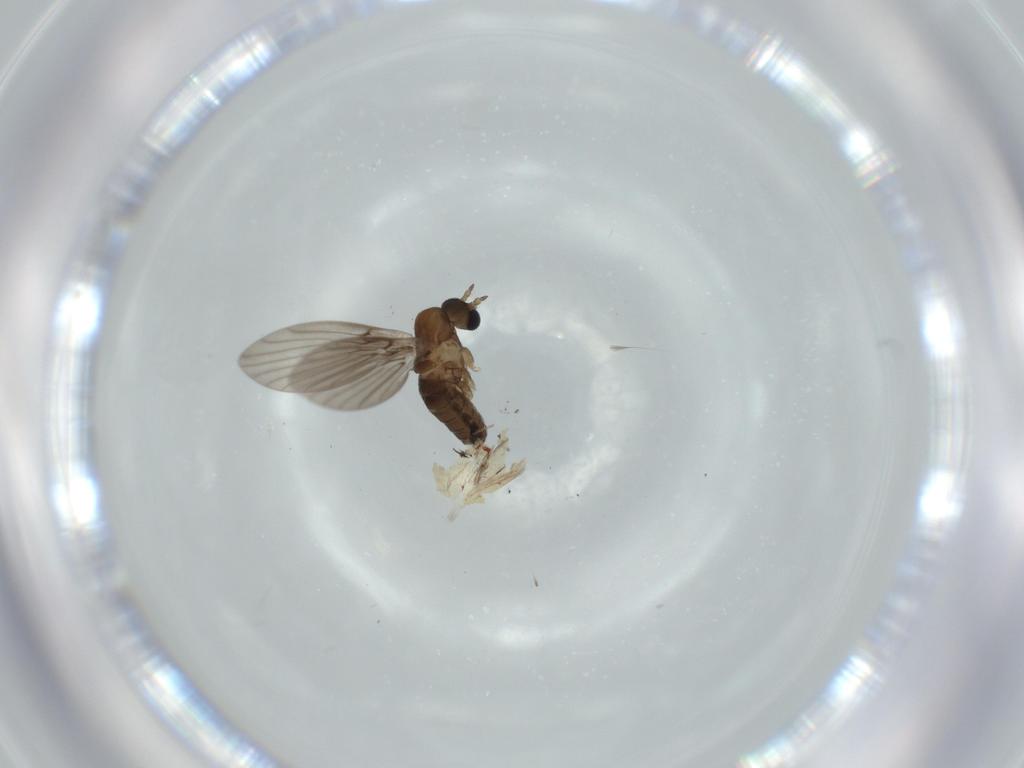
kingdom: Animalia
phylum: Arthropoda
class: Insecta
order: Diptera
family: Psychodidae
